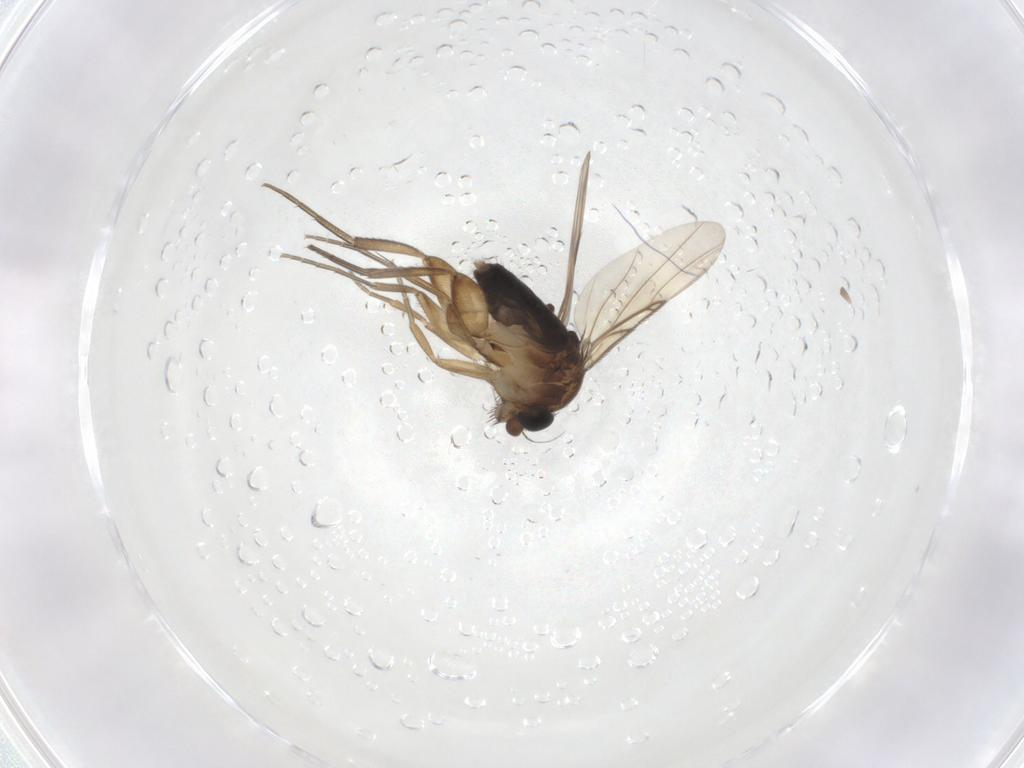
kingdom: Animalia
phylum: Arthropoda
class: Insecta
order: Diptera
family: Phoridae
